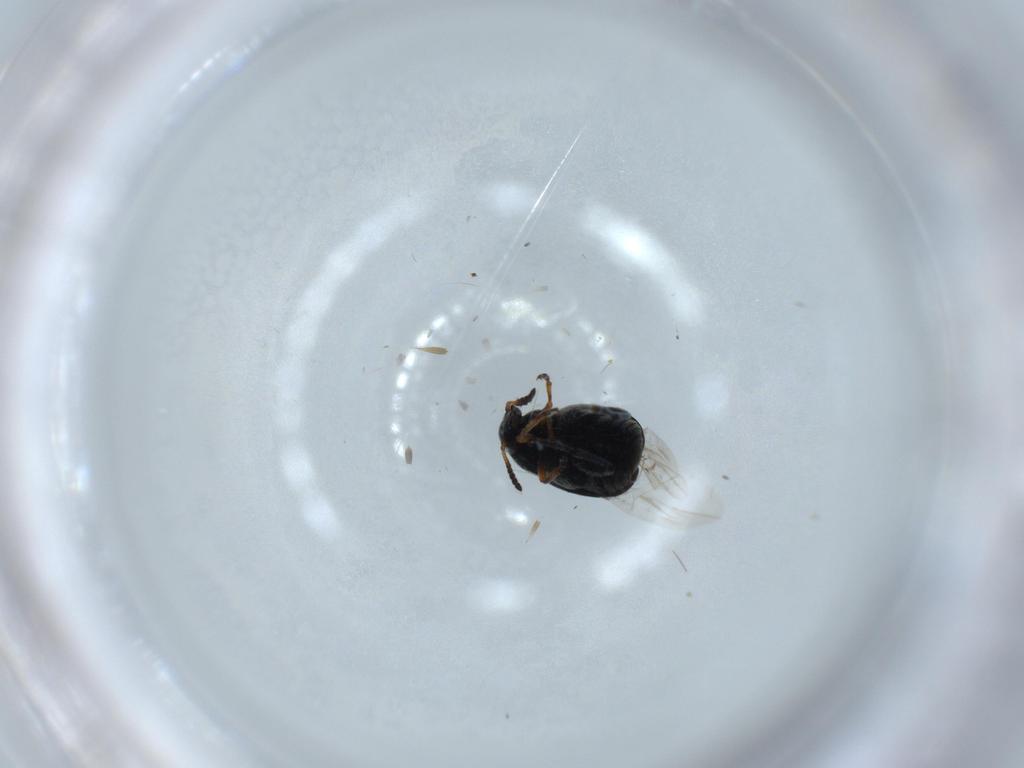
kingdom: Animalia
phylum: Arthropoda
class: Insecta
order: Coleoptera
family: Chrysomelidae
